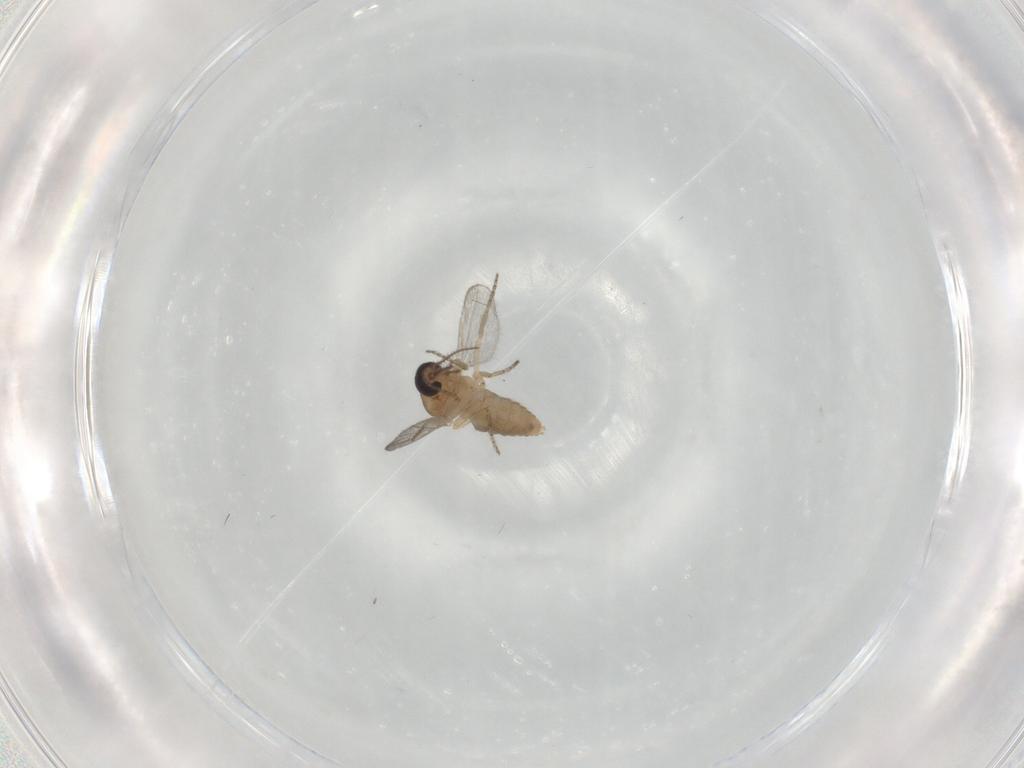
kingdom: Animalia
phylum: Arthropoda
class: Insecta
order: Diptera
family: Ceratopogonidae
